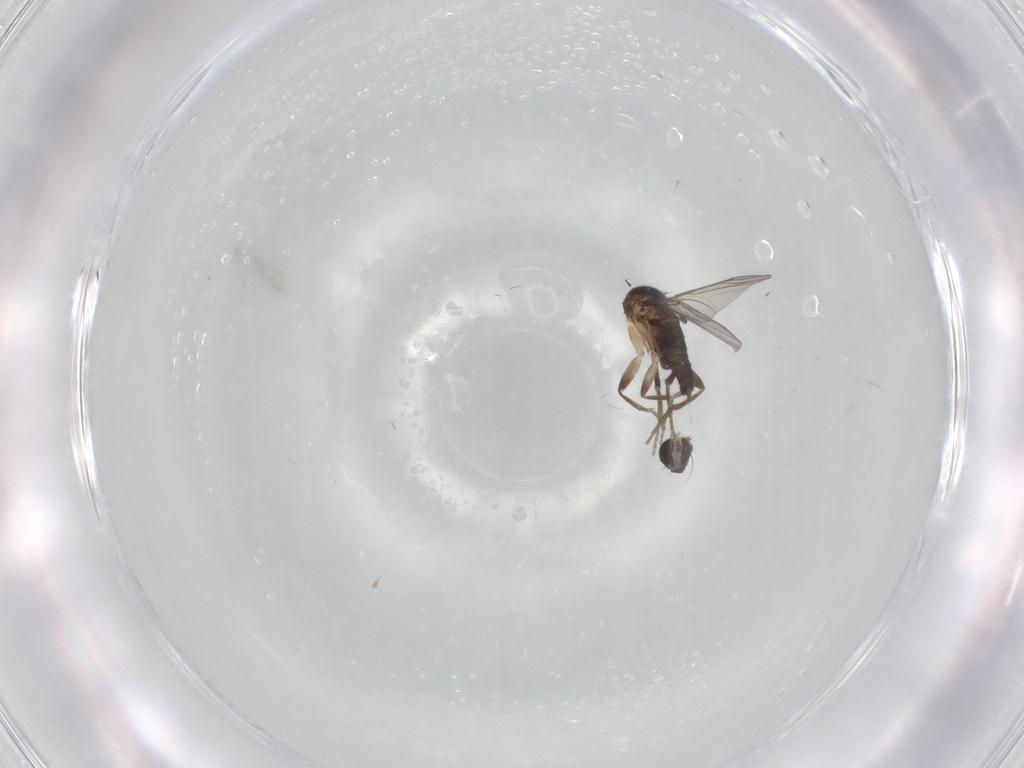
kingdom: Animalia
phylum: Arthropoda
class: Insecta
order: Diptera
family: Phoridae
